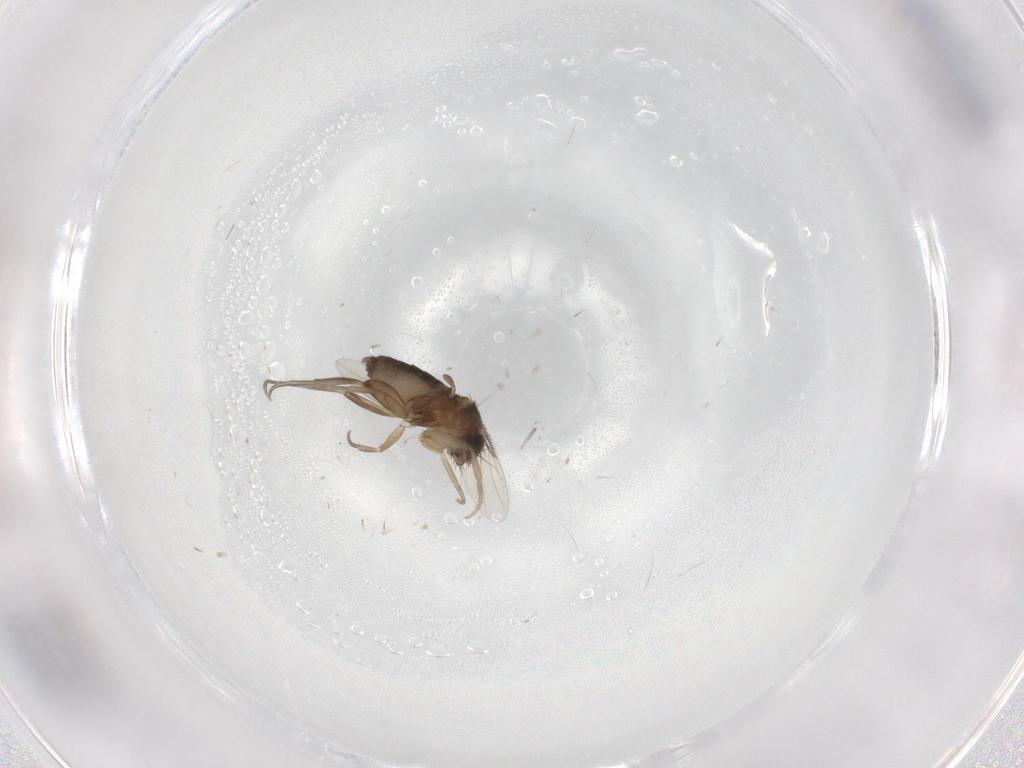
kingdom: Animalia
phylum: Arthropoda
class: Insecta
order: Diptera
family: Phoridae
